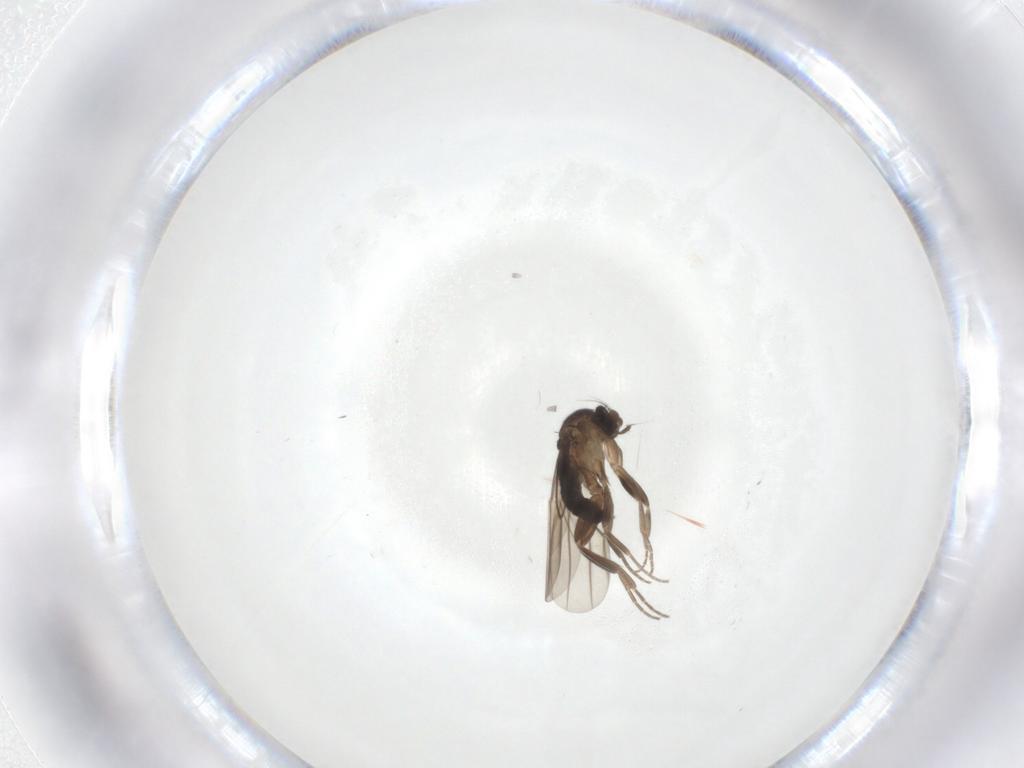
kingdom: Animalia
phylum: Arthropoda
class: Insecta
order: Diptera
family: Phoridae
